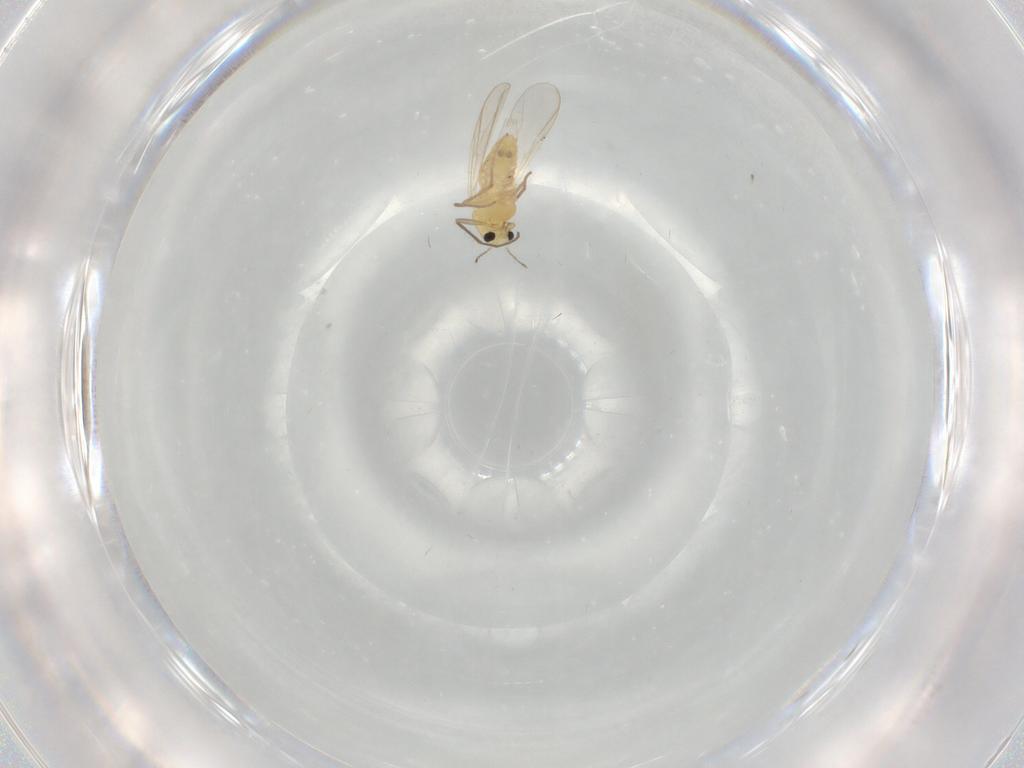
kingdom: Animalia
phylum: Arthropoda
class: Insecta
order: Diptera
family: Chironomidae
